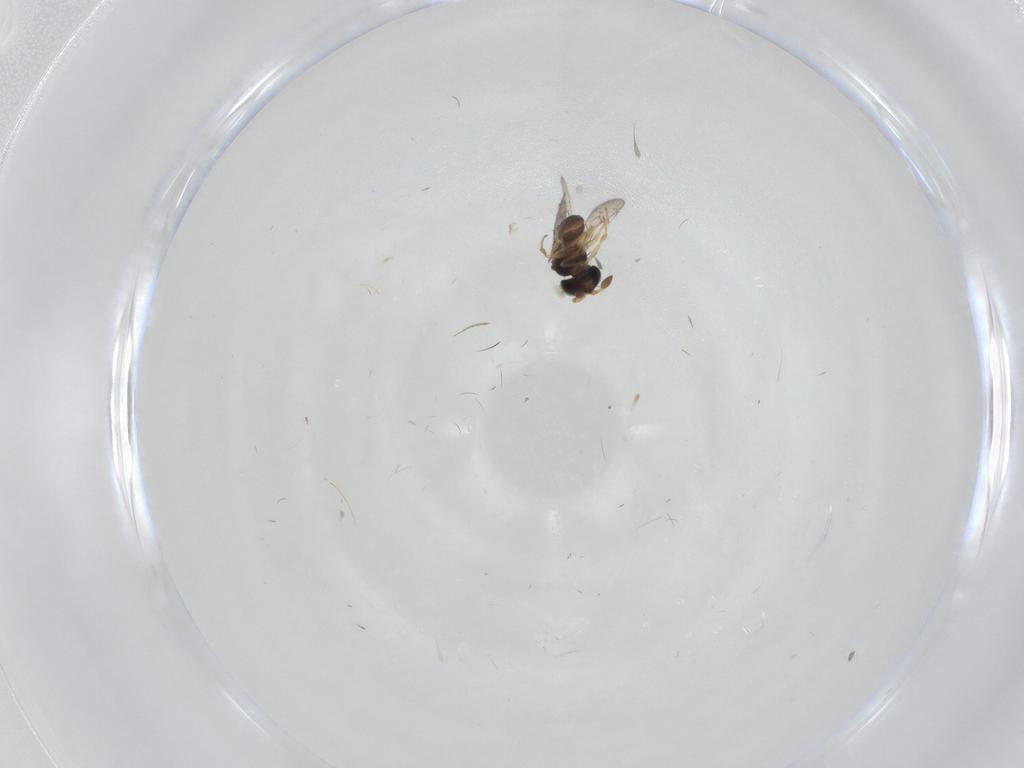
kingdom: Animalia
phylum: Arthropoda
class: Insecta
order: Hymenoptera
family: Scelionidae
